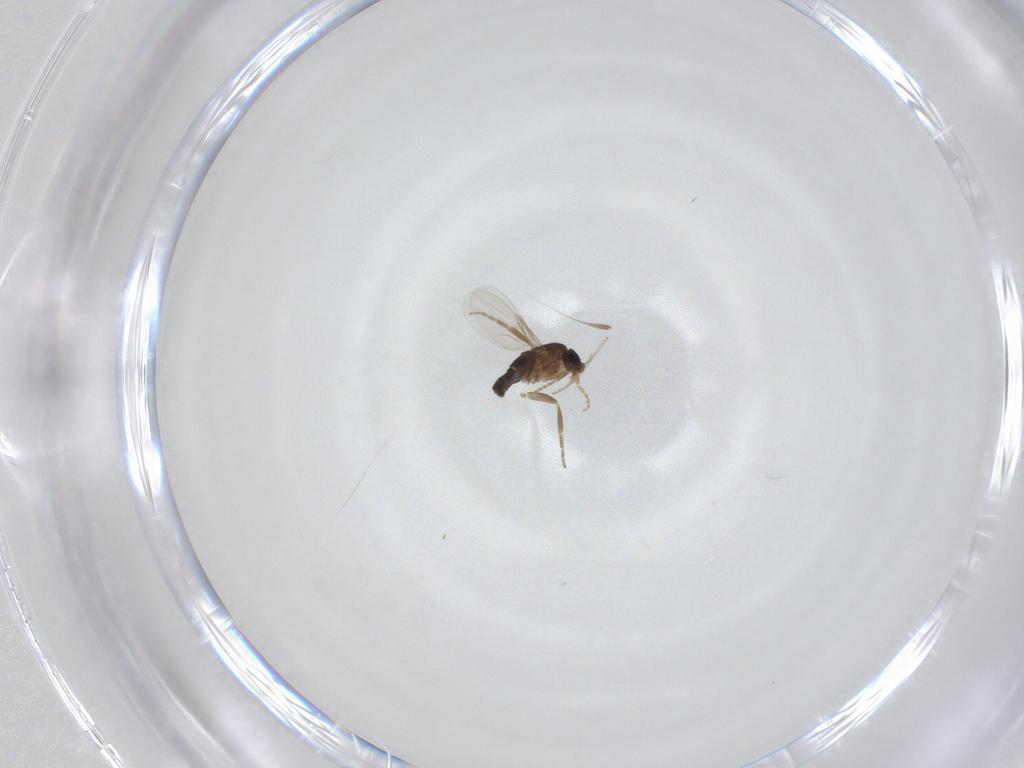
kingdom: Animalia
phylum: Arthropoda
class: Insecta
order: Diptera
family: Phoridae
